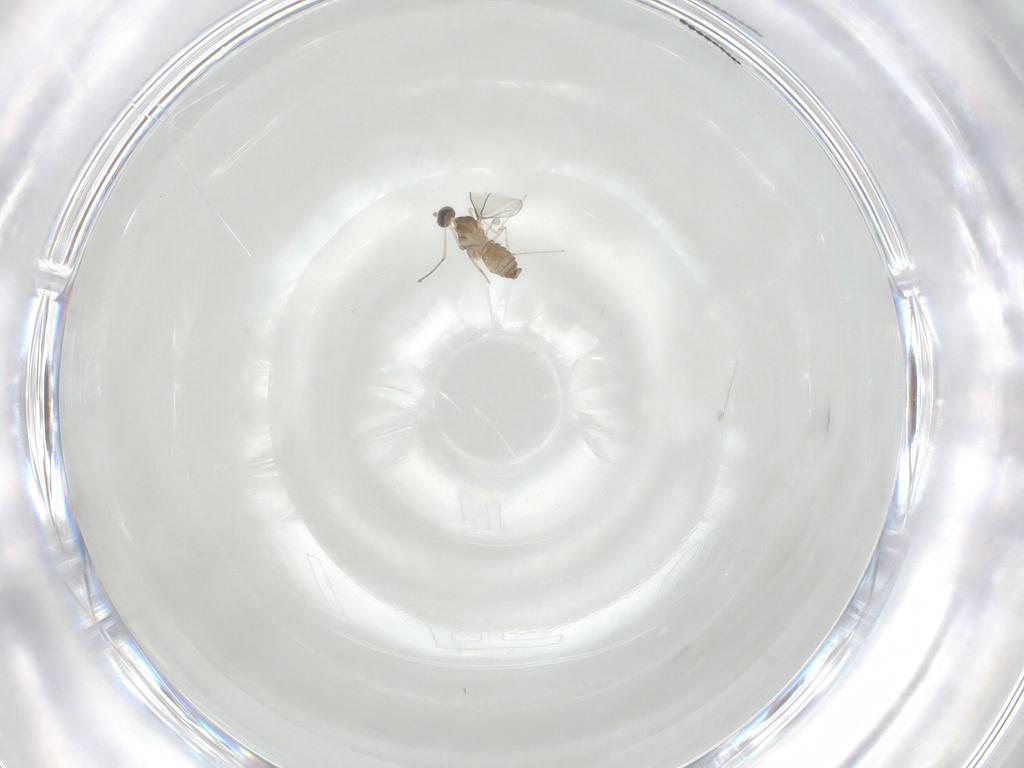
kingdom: Animalia
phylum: Arthropoda
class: Insecta
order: Diptera
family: Cecidomyiidae
